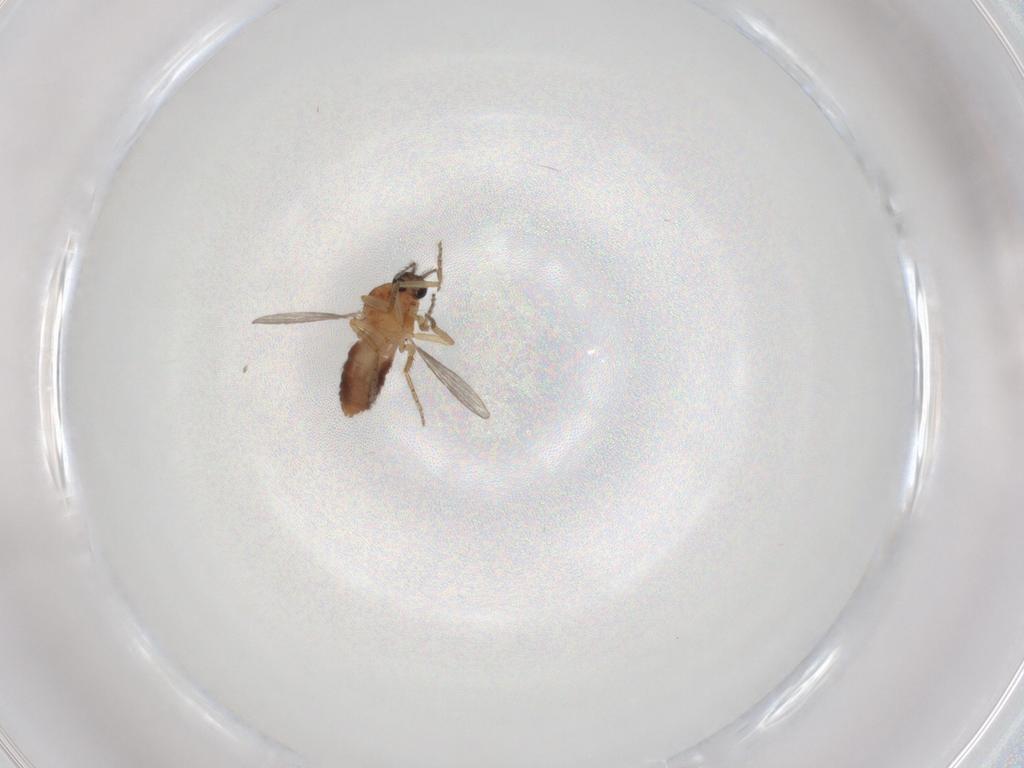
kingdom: Animalia
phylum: Arthropoda
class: Insecta
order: Diptera
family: Ceratopogonidae
